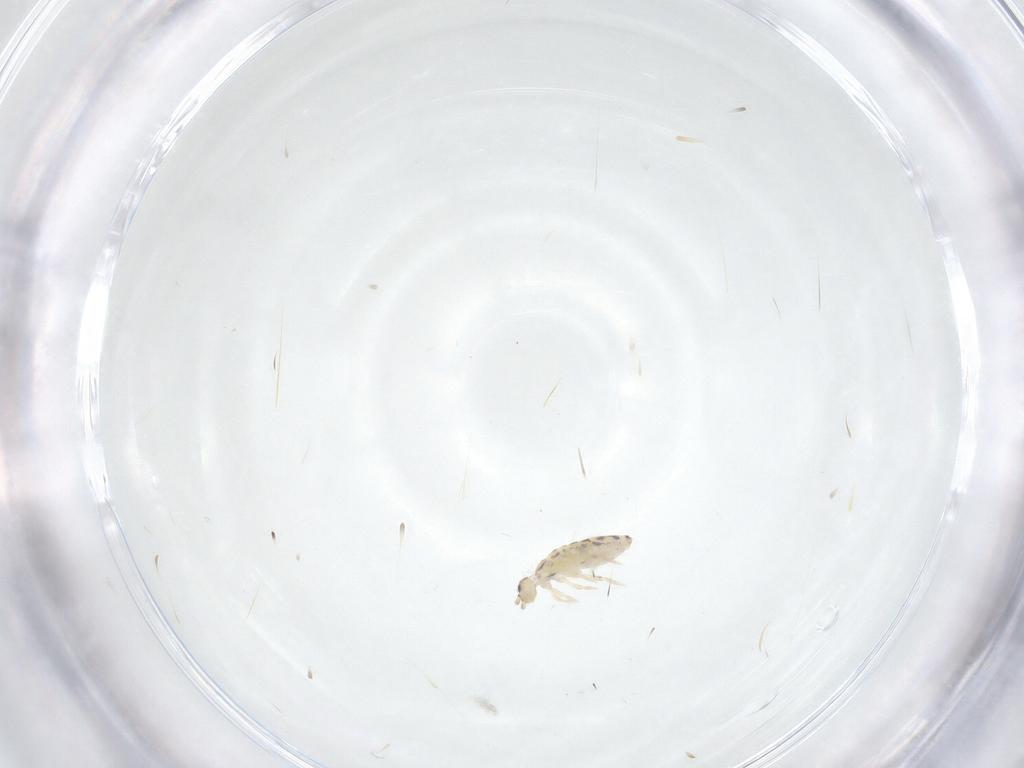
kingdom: Animalia
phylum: Arthropoda
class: Collembola
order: Entomobryomorpha
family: Entomobryidae
